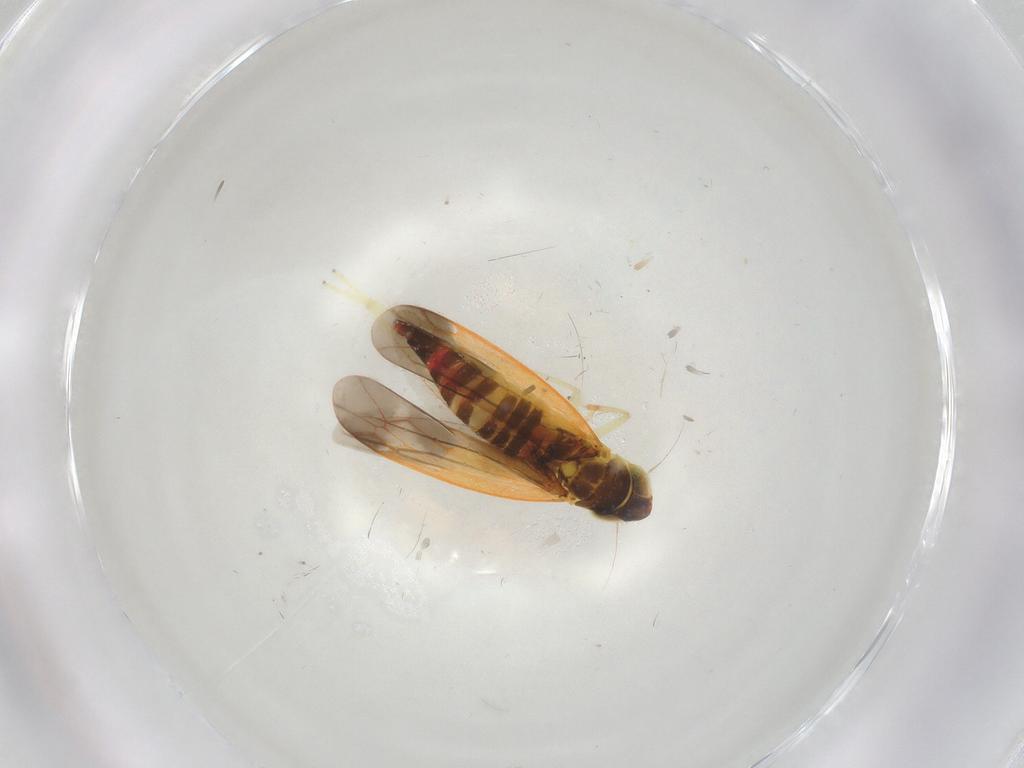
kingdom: Animalia
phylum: Arthropoda
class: Insecta
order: Hemiptera
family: Cicadellidae
